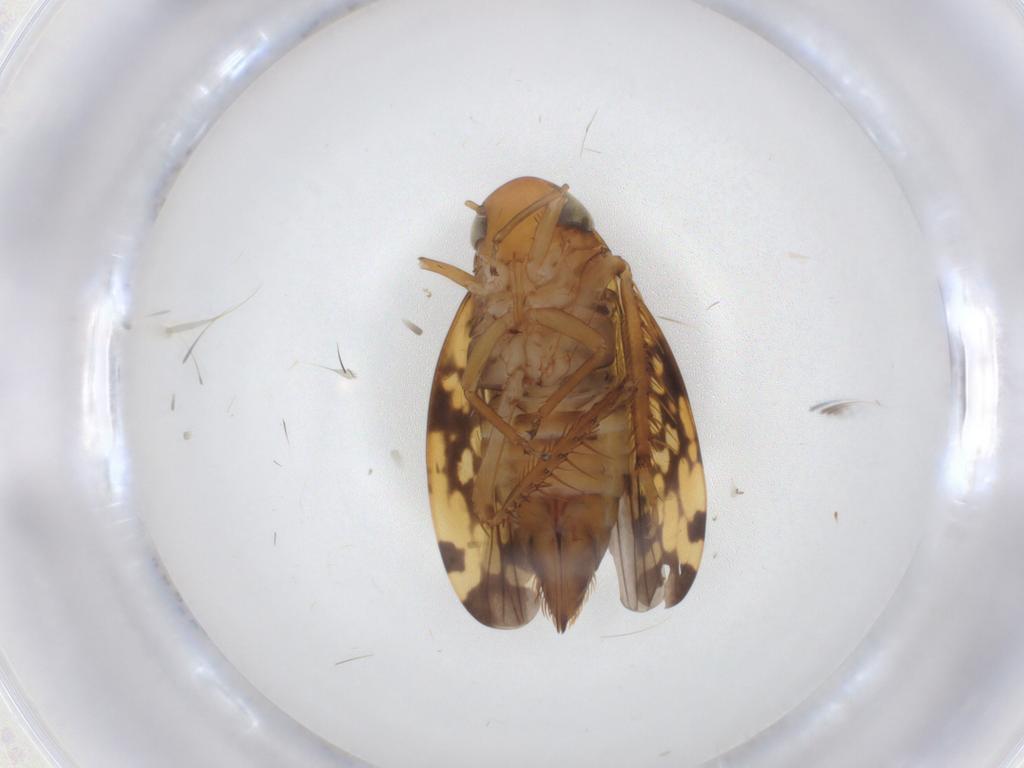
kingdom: Animalia
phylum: Arthropoda
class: Insecta
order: Hemiptera
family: Cicadellidae
